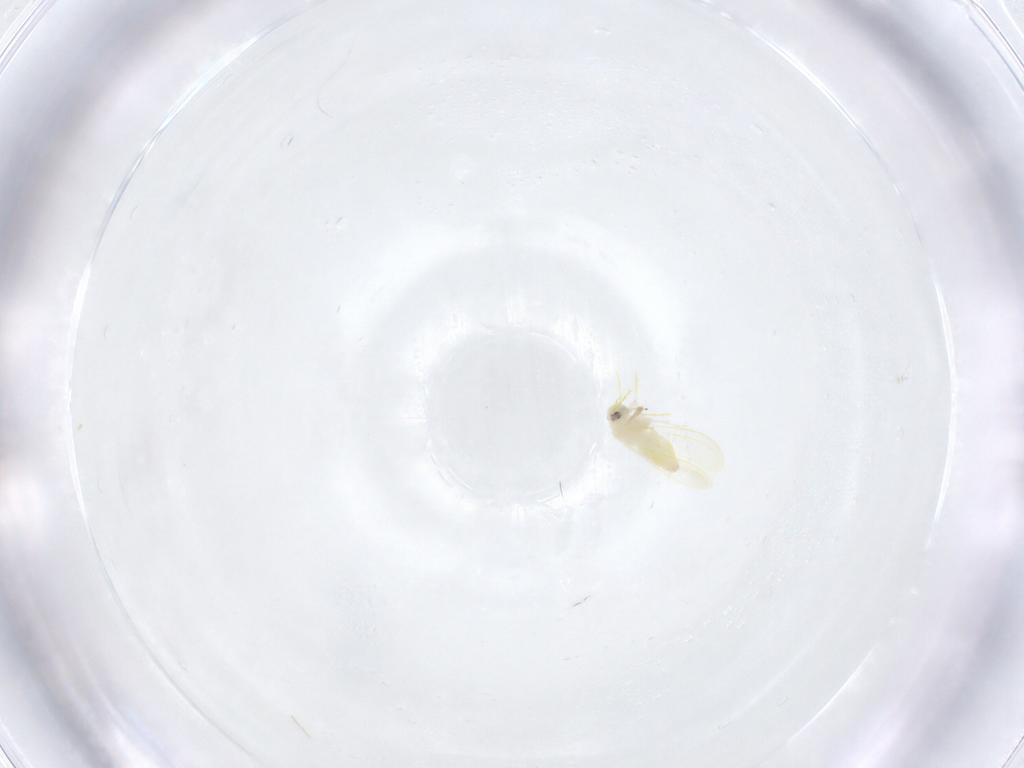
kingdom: Animalia
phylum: Arthropoda
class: Insecta
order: Hemiptera
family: Aleyrodidae
